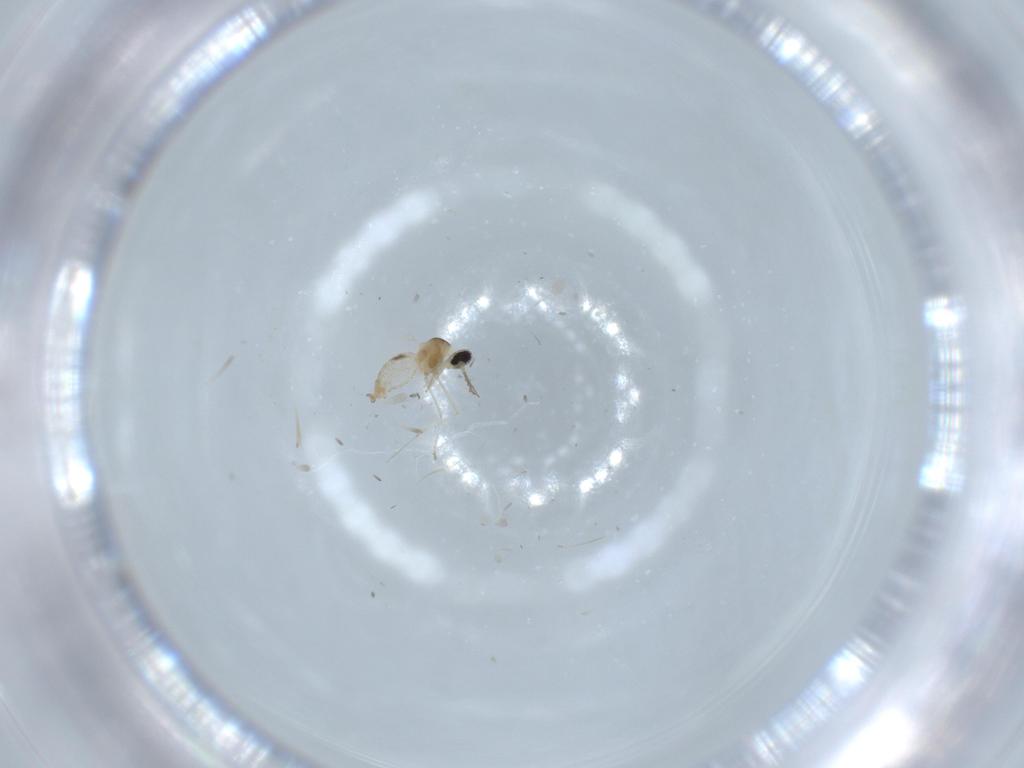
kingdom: Animalia
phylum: Arthropoda
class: Insecta
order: Diptera
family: Cecidomyiidae
